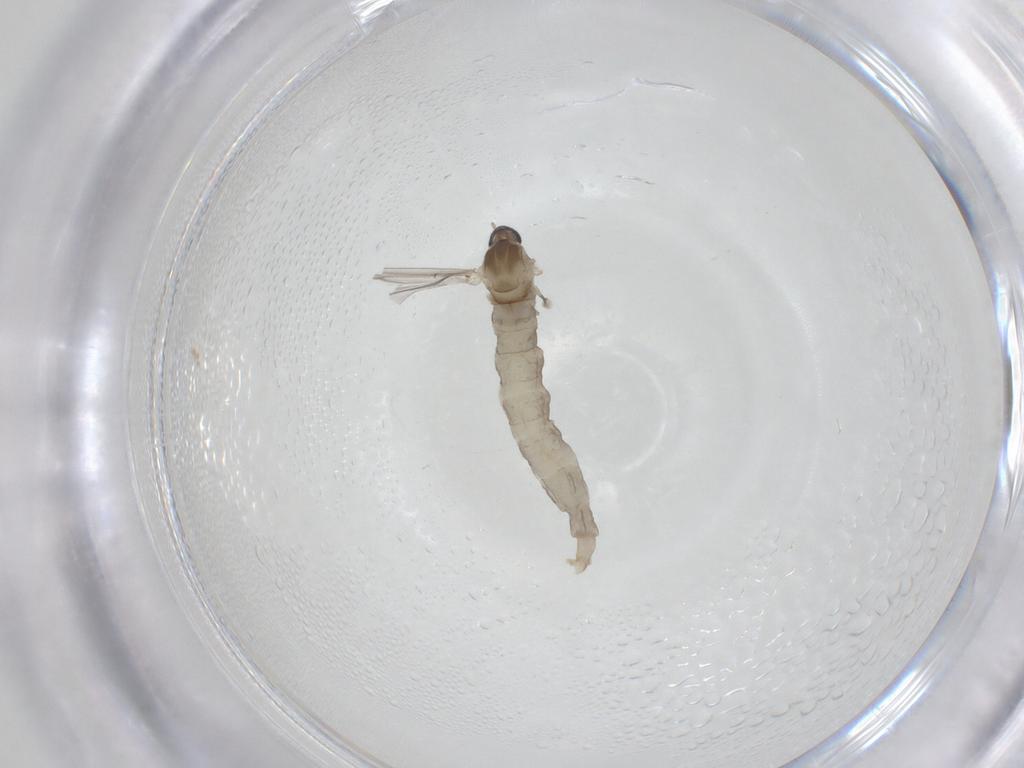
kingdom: Animalia
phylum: Arthropoda
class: Insecta
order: Diptera
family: Cecidomyiidae
